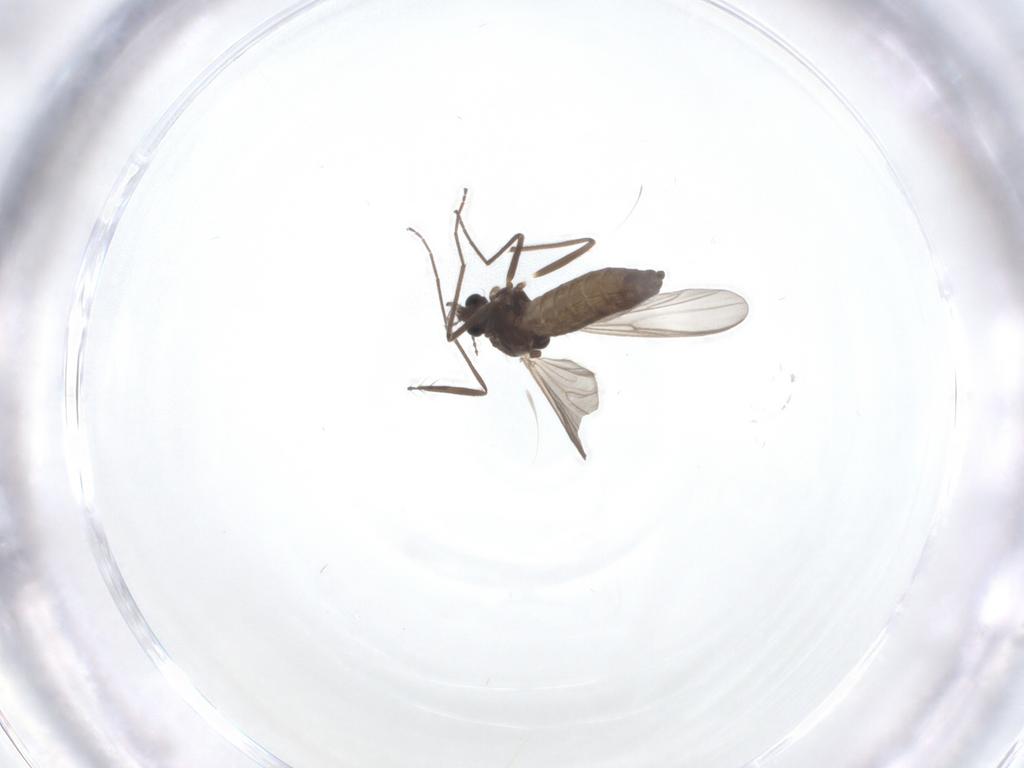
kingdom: Animalia
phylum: Arthropoda
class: Insecta
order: Diptera
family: Chironomidae
